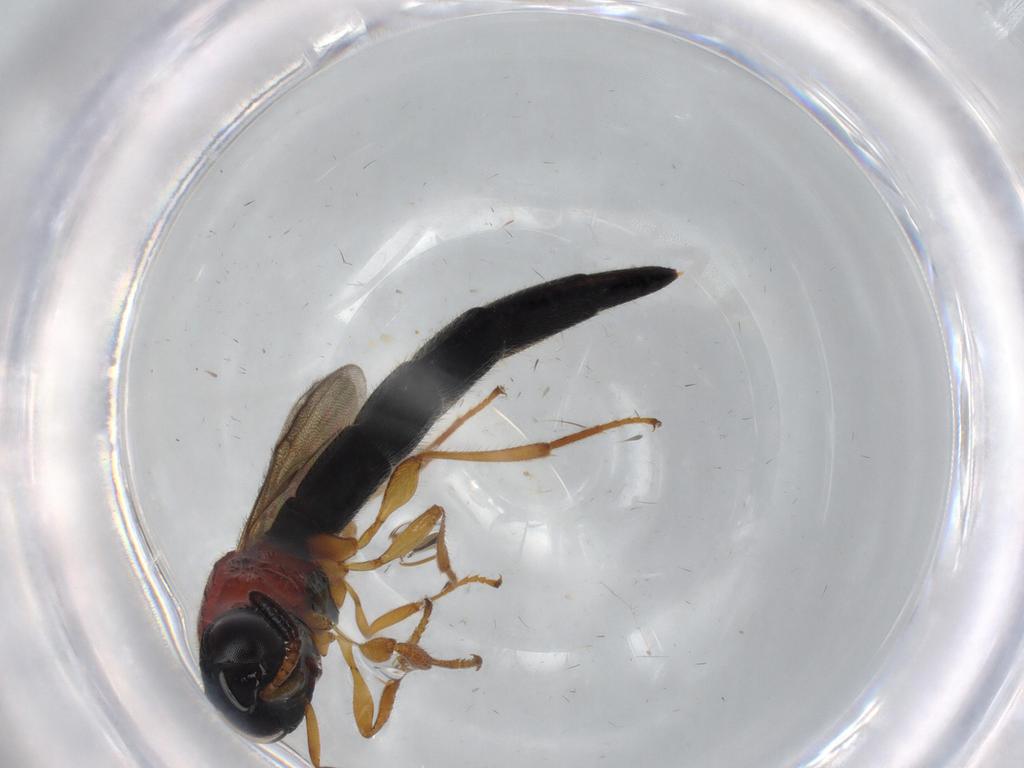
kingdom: Animalia
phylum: Arthropoda
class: Insecta
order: Hymenoptera
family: Scelionidae
